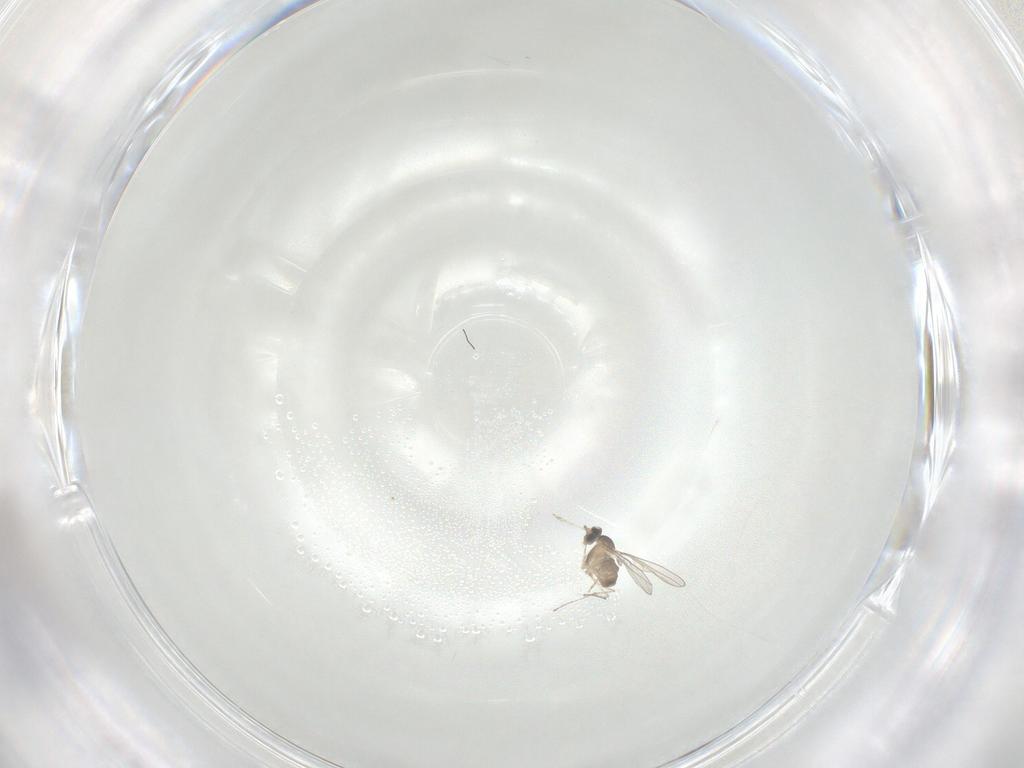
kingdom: Animalia
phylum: Arthropoda
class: Insecta
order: Diptera
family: Cecidomyiidae
